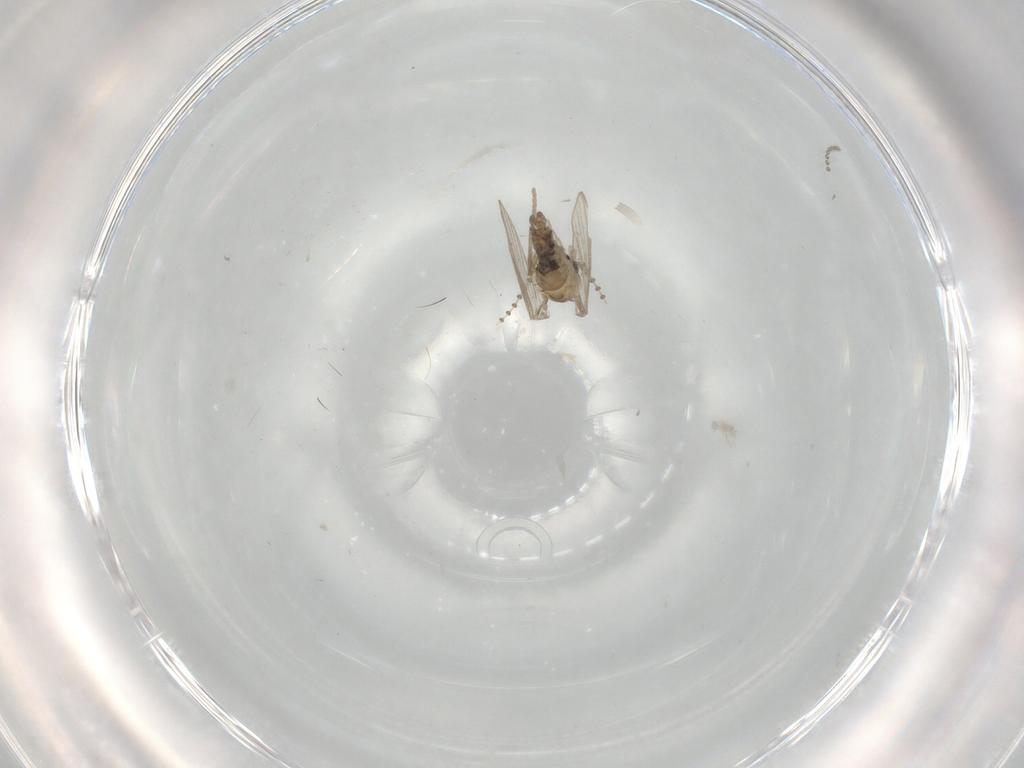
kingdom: Animalia
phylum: Arthropoda
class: Insecta
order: Diptera
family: Psychodidae
